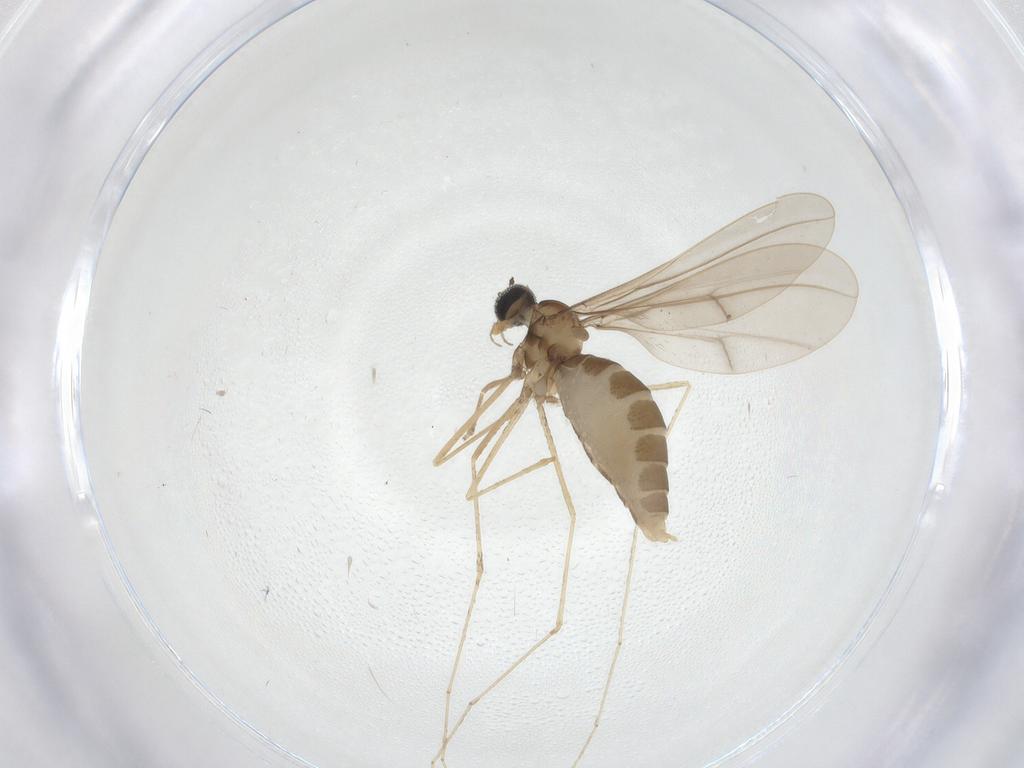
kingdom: Animalia
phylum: Arthropoda
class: Insecta
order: Diptera
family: Cecidomyiidae
